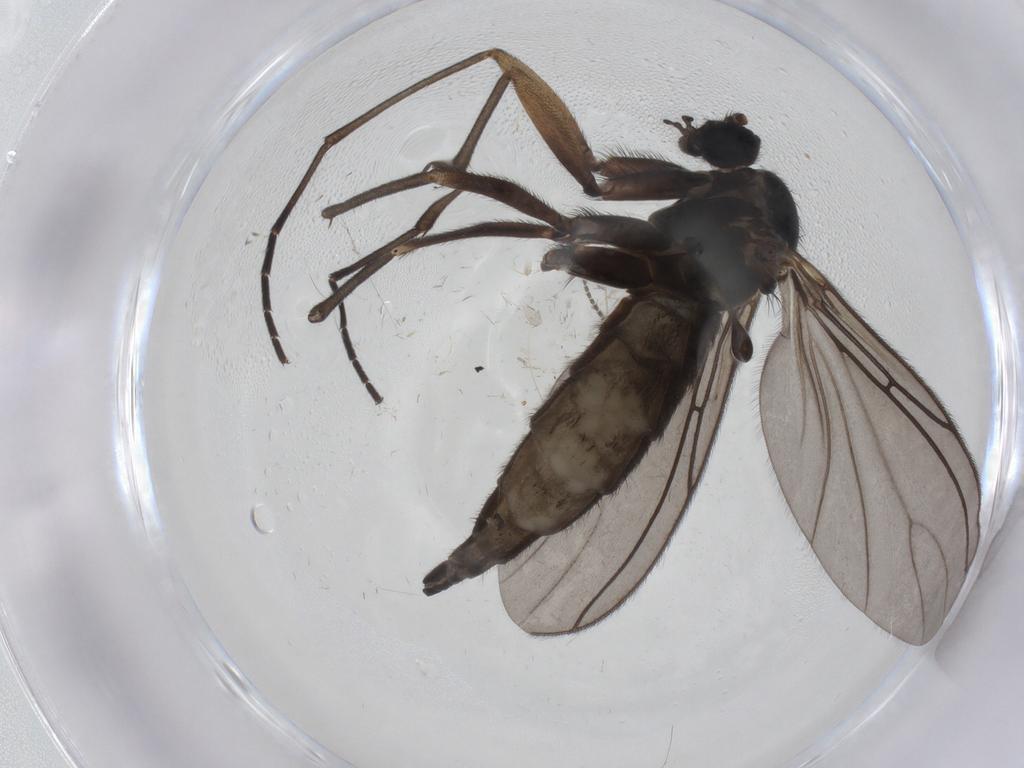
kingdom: Animalia
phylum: Arthropoda
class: Insecta
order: Diptera
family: Sciaridae
